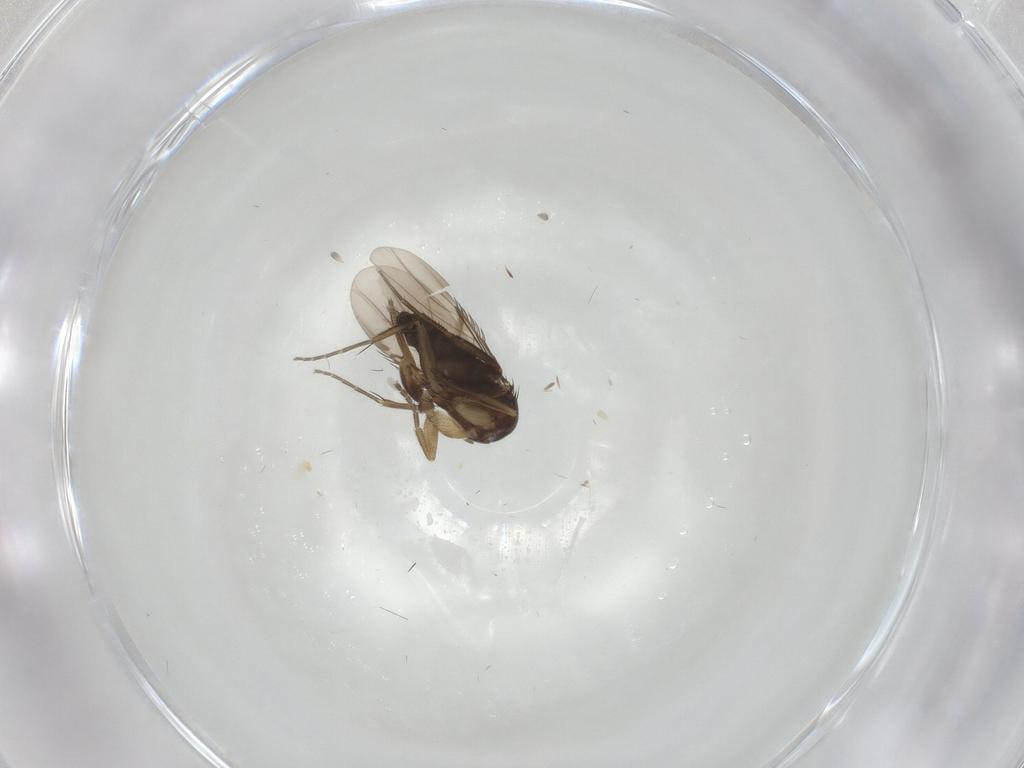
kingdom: Animalia
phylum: Arthropoda
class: Insecta
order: Diptera
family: Phoridae
